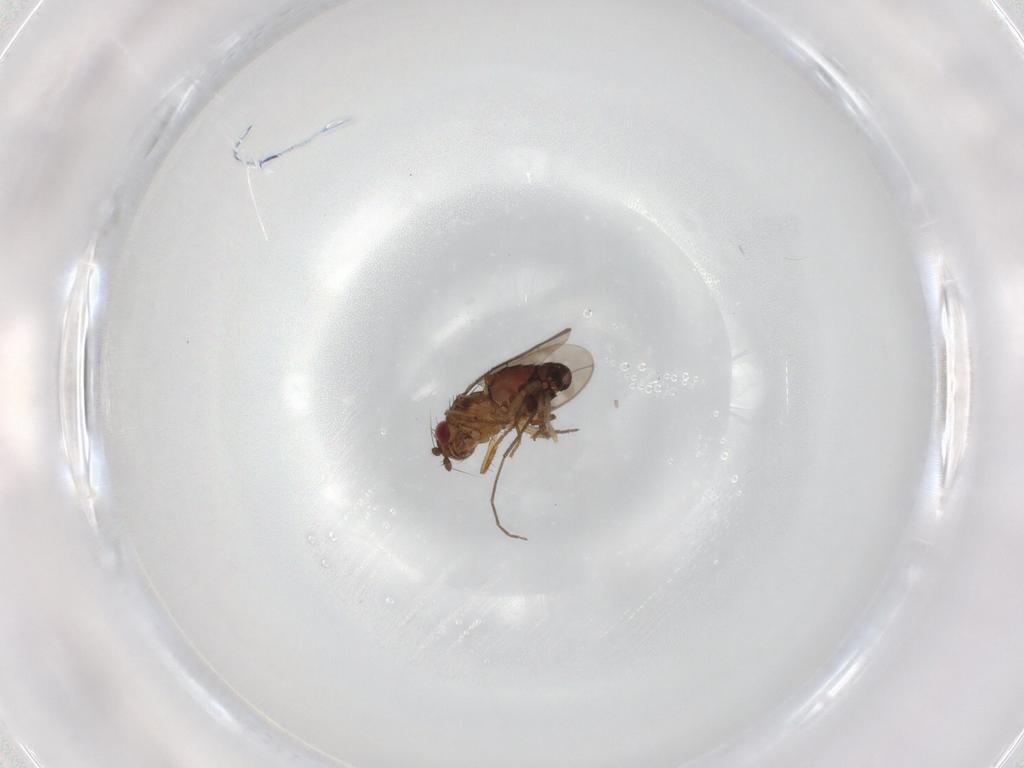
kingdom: Animalia
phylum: Arthropoda
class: Insecta
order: Diptera
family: Sphaeroceridae
